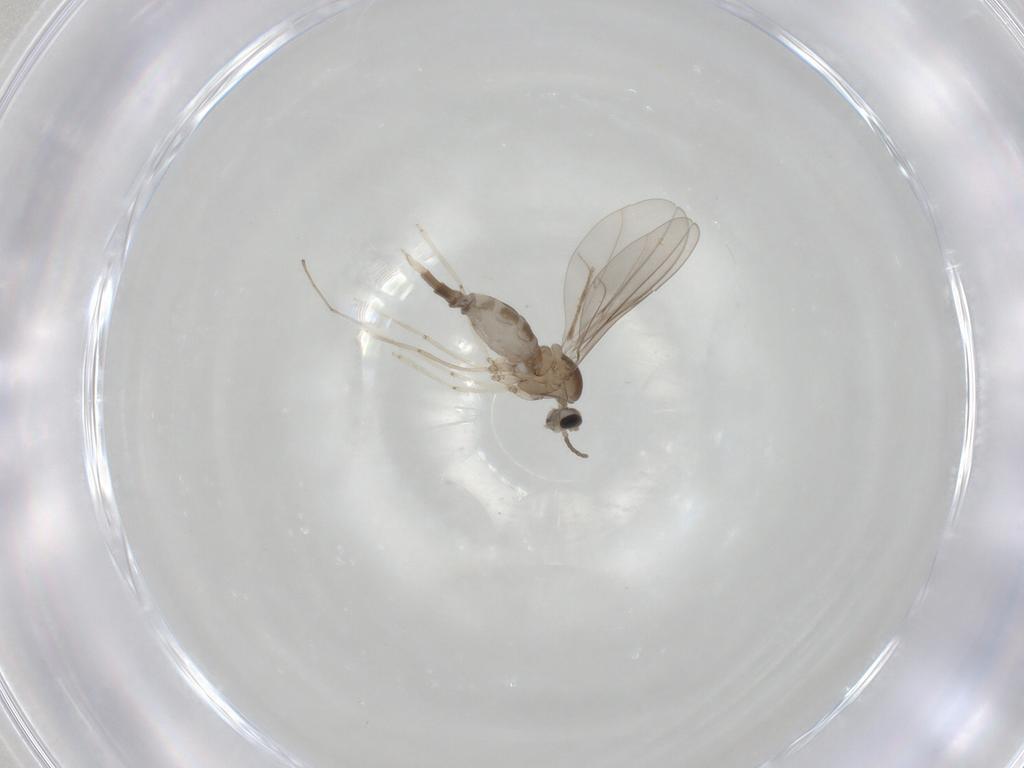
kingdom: Animalia
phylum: Arthropoda
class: Insecta
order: Diptera
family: Cecidomyiidae
